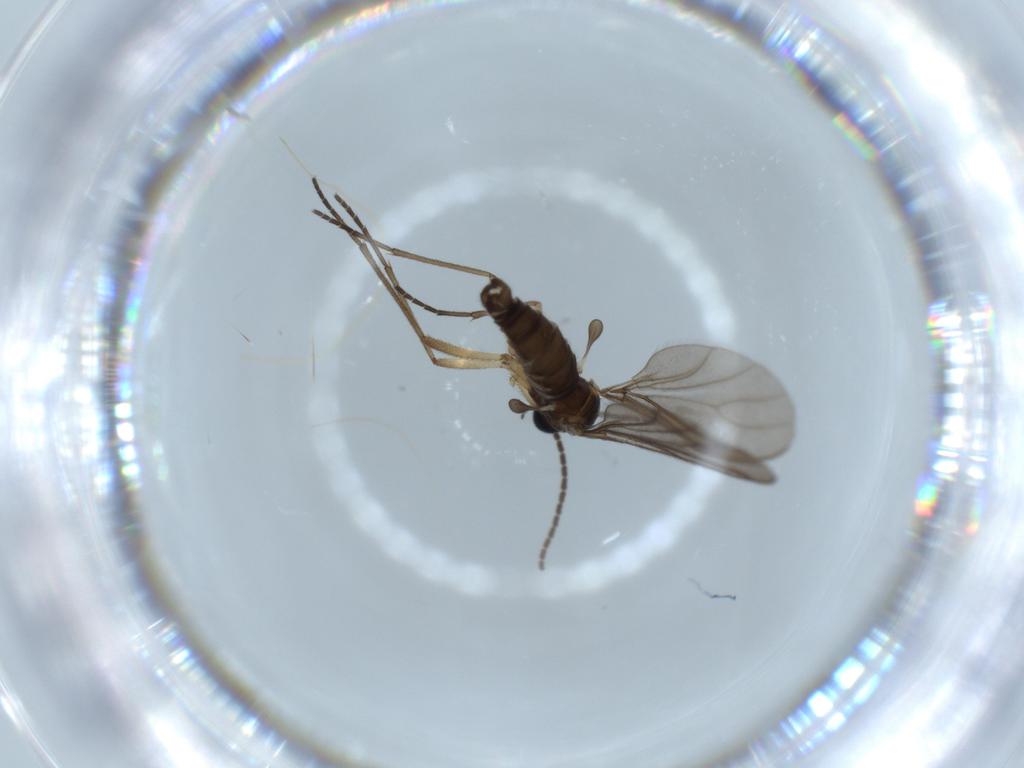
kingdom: Animalia
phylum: Arthropoda
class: Insecta
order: Diptera
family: Sciaridae
